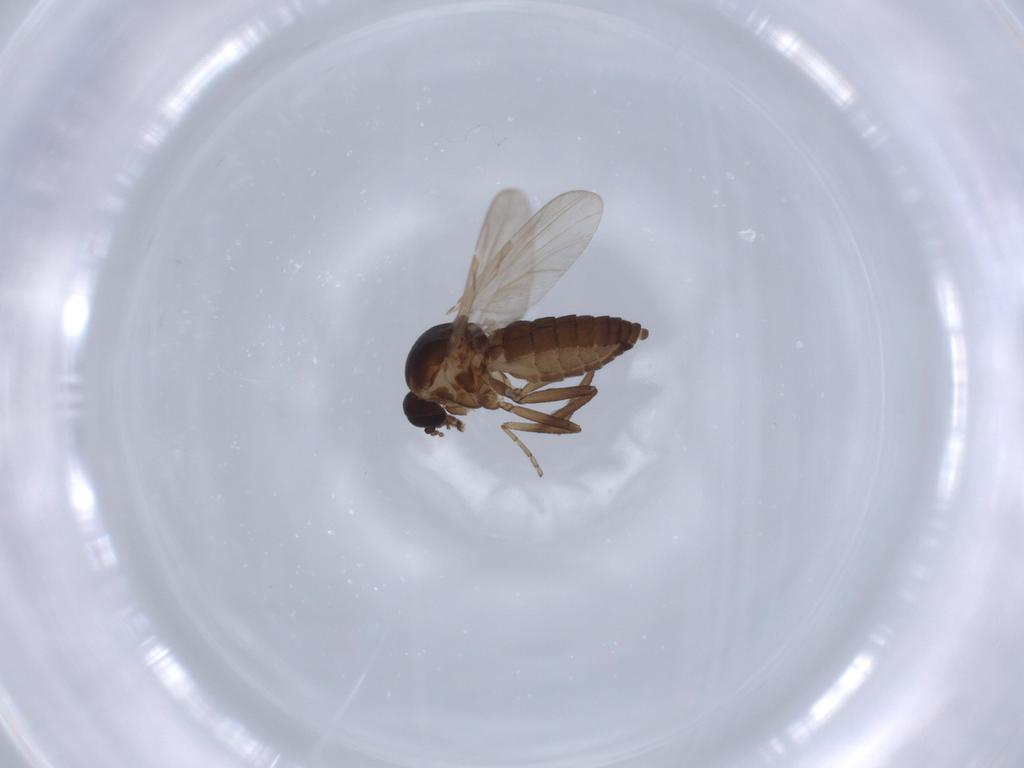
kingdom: Animalia
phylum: Arthropoda
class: Insecta
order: Diptera
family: Ceratopogonidae
